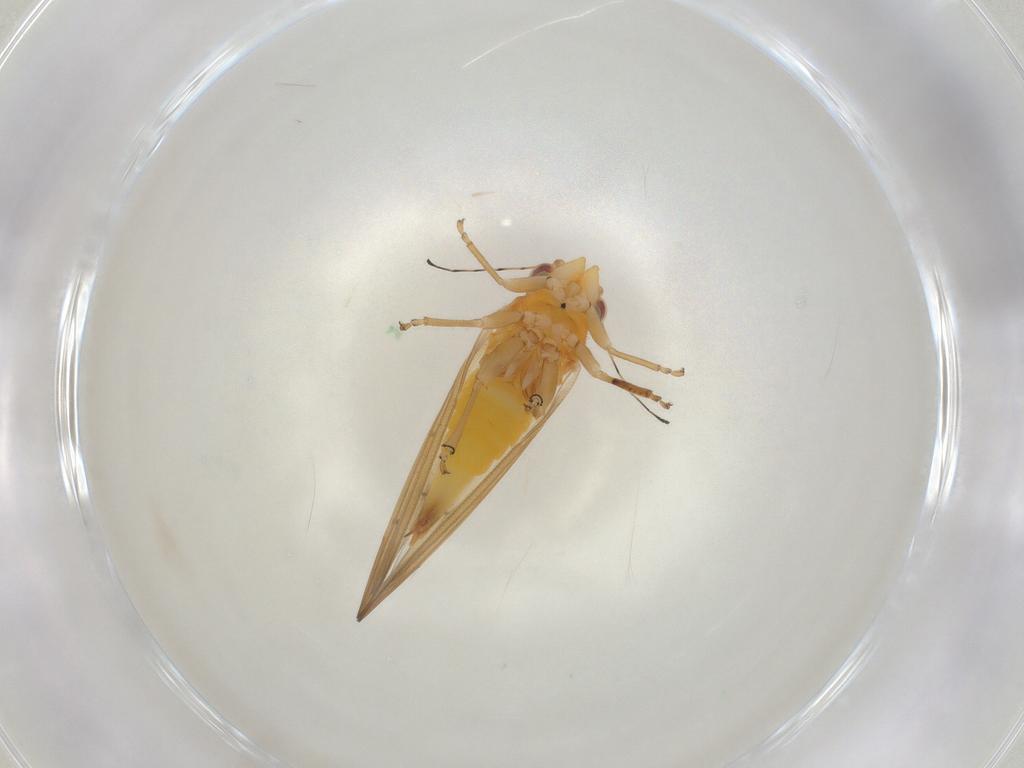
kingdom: Animalia
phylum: Arthropoda
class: Insecta
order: Hemiptera
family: Psylloidea_incertae_sedis
